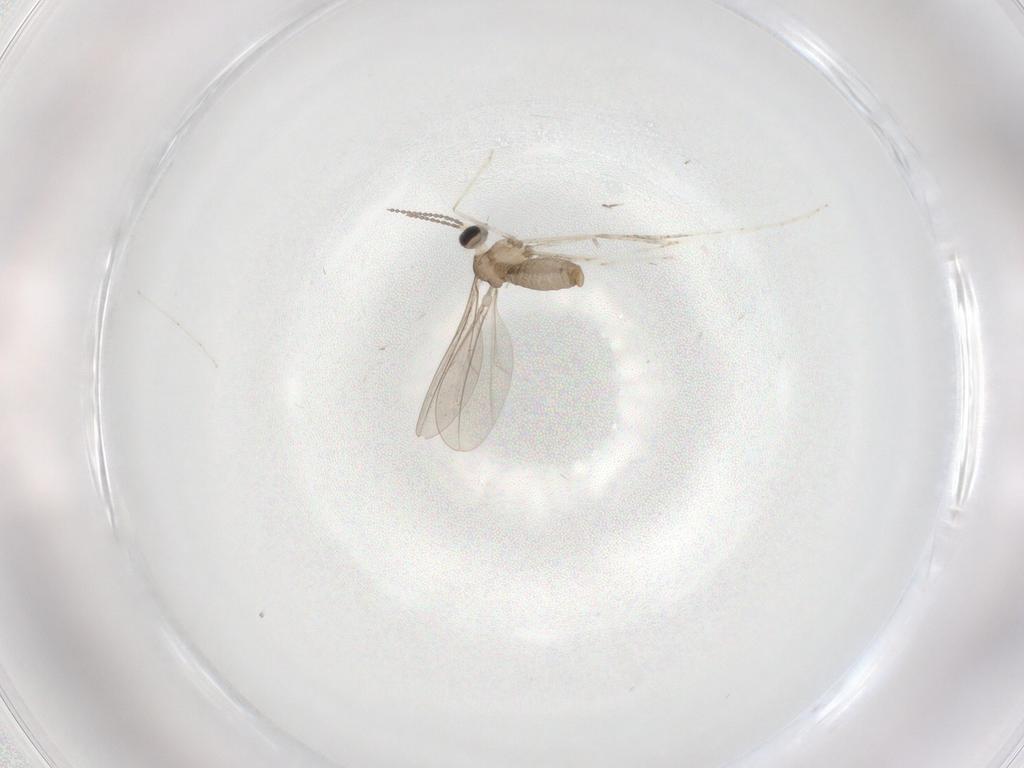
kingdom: Animalia
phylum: Arthropoda
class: Insecta
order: Diptera
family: Cecidomyiidae
